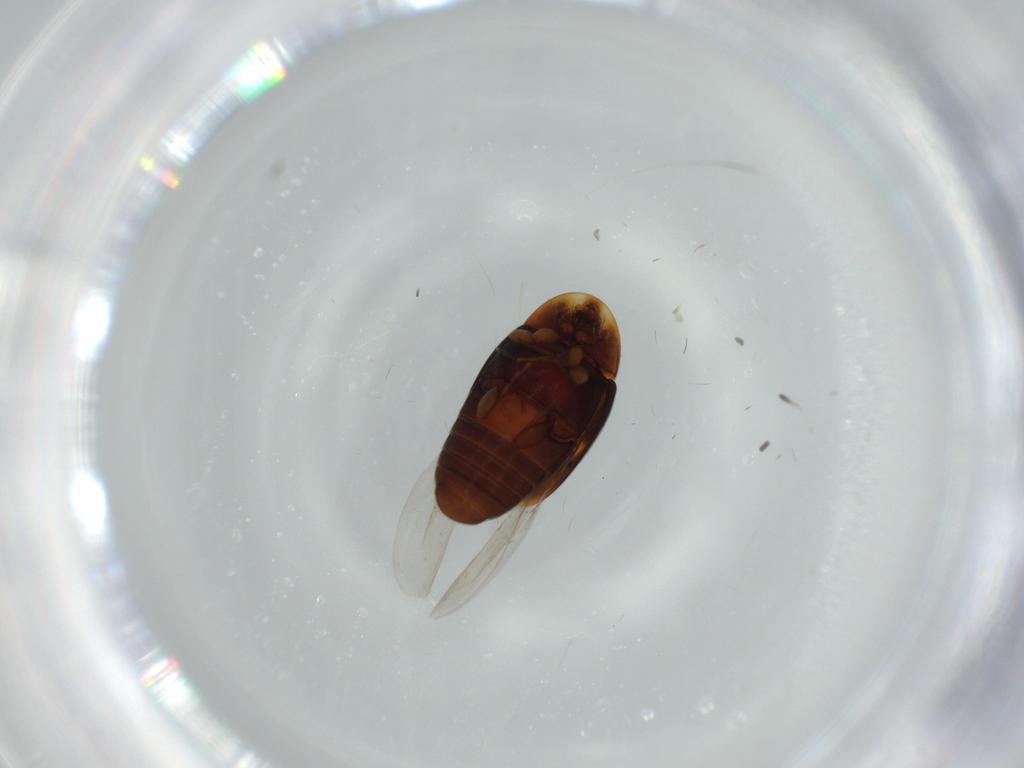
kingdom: Animalia
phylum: Arthropoda
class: Insecta
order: Coleoptera
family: Corylophidae
